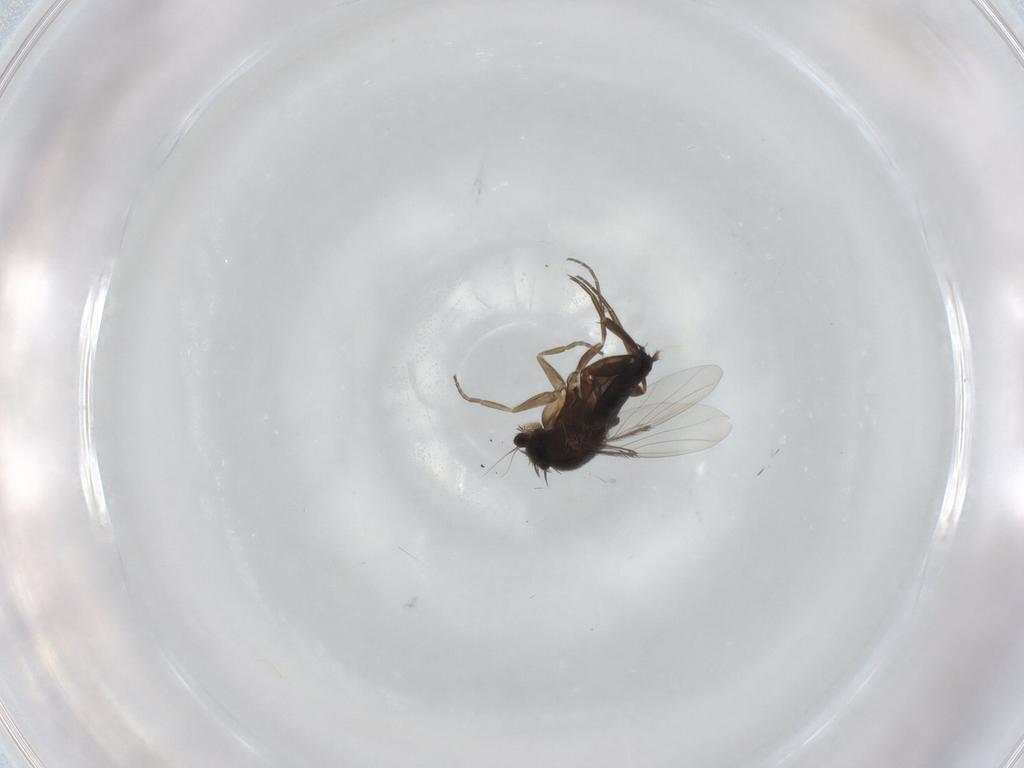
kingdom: Animalia
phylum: Arthropoda
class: Insecta
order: Diptera
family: Phoridae
